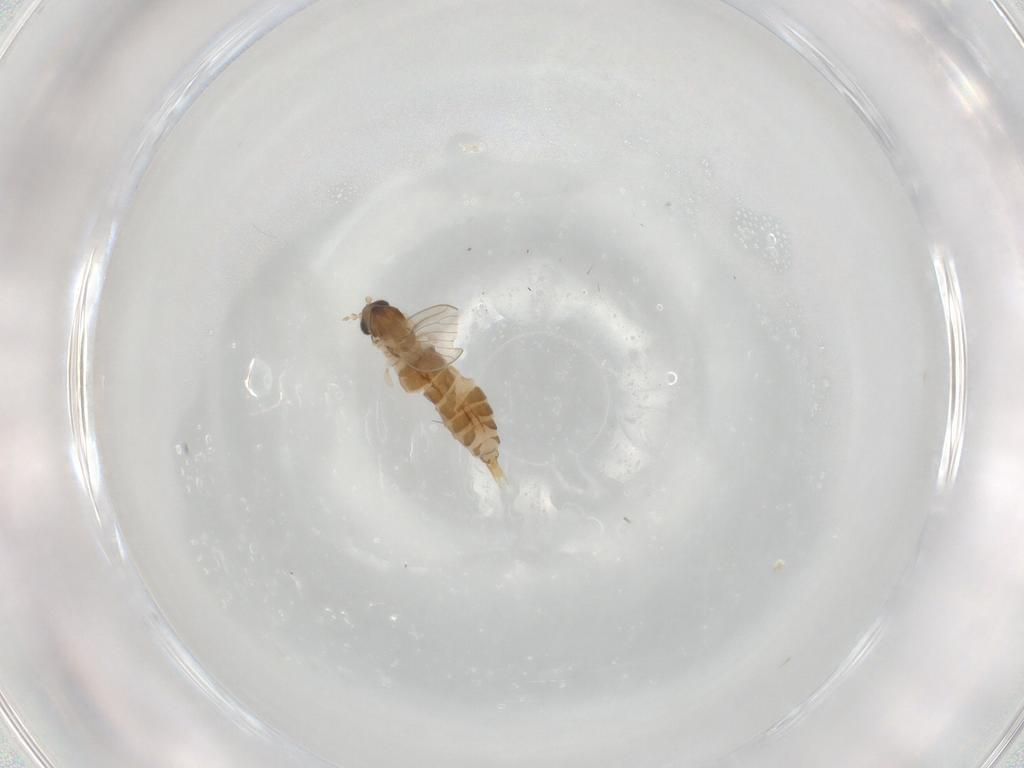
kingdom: Animalia
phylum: Arthropoda
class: Insecta
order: Diptera
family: Psychodidae
